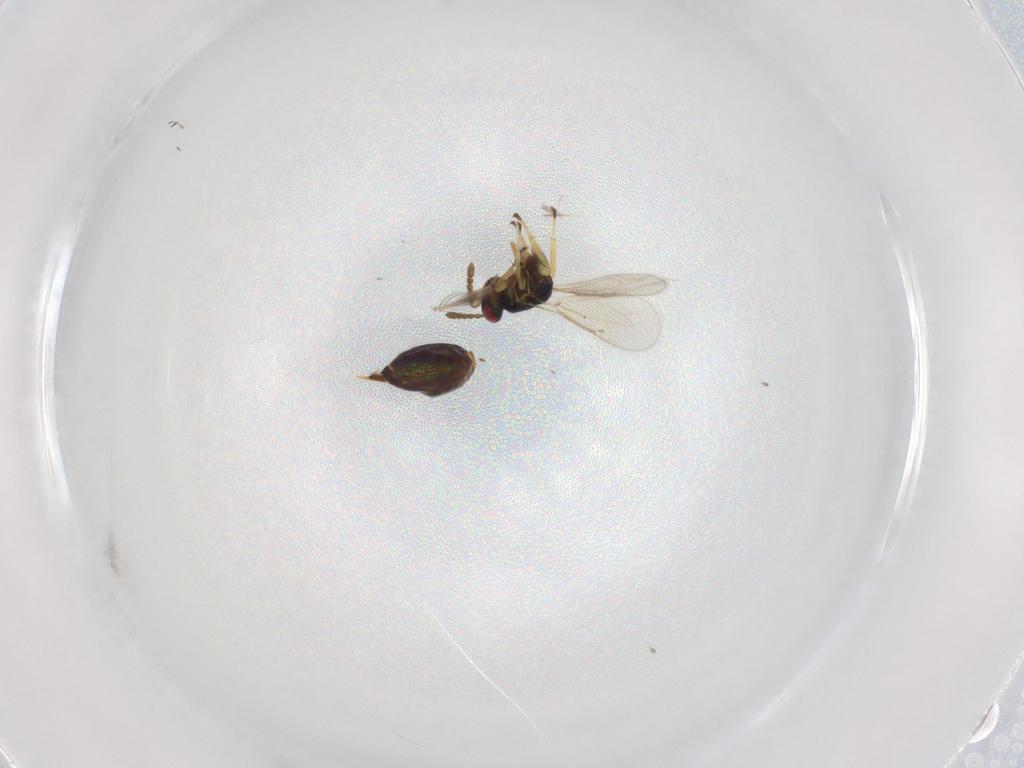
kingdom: Animalia
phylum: Arthropoda
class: Insecta
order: Hymenoptera
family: Eulophidae
